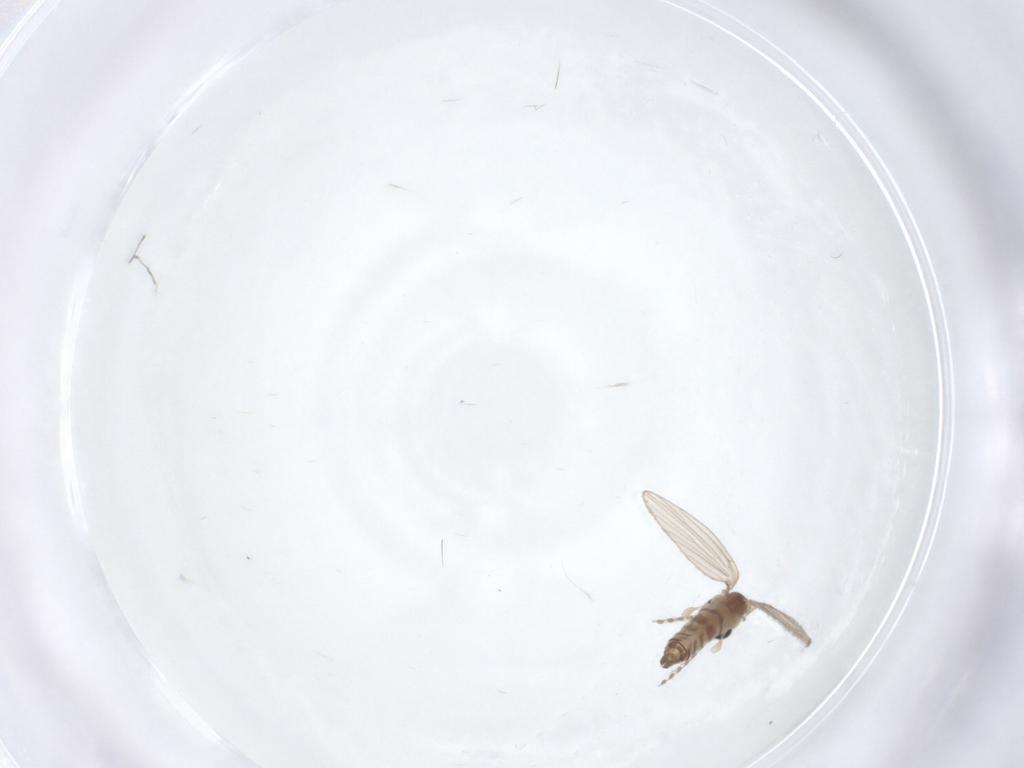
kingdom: Animalia
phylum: Arthropoda
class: Insecta
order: Diptera
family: Psychodidae
